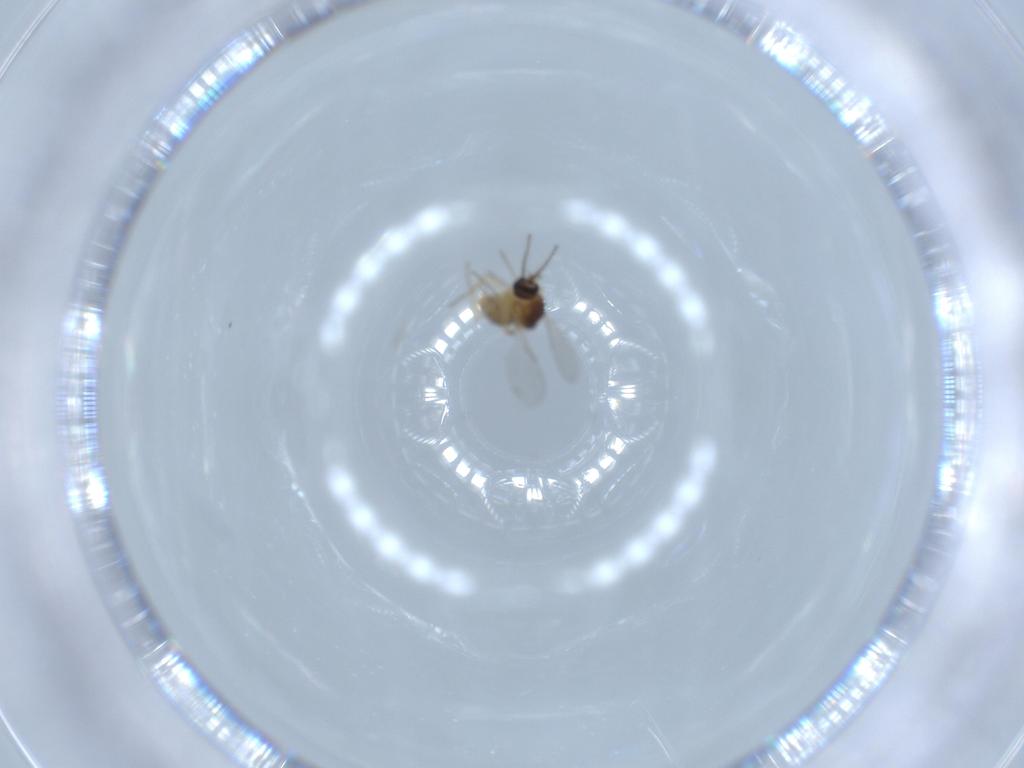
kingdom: Animalia
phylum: Arthropoda
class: Insecta
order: Diptera
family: Ceratopogonidae
